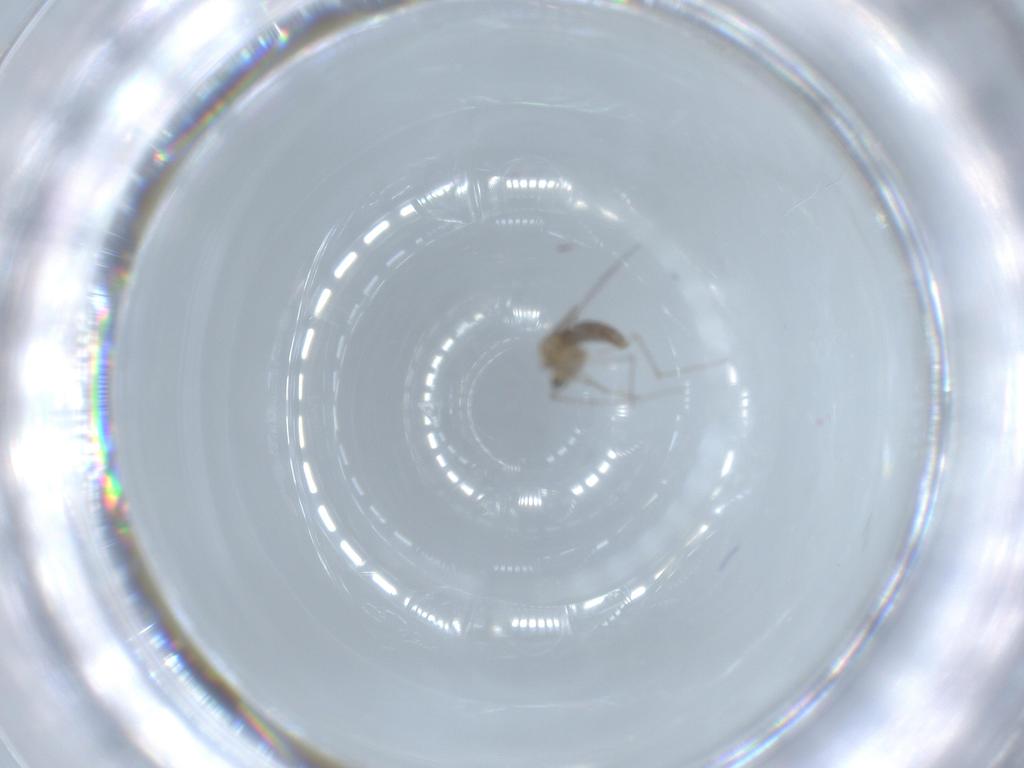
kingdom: Animalia
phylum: Arthropoda
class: Insecta
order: Diptera
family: Chironomidae
